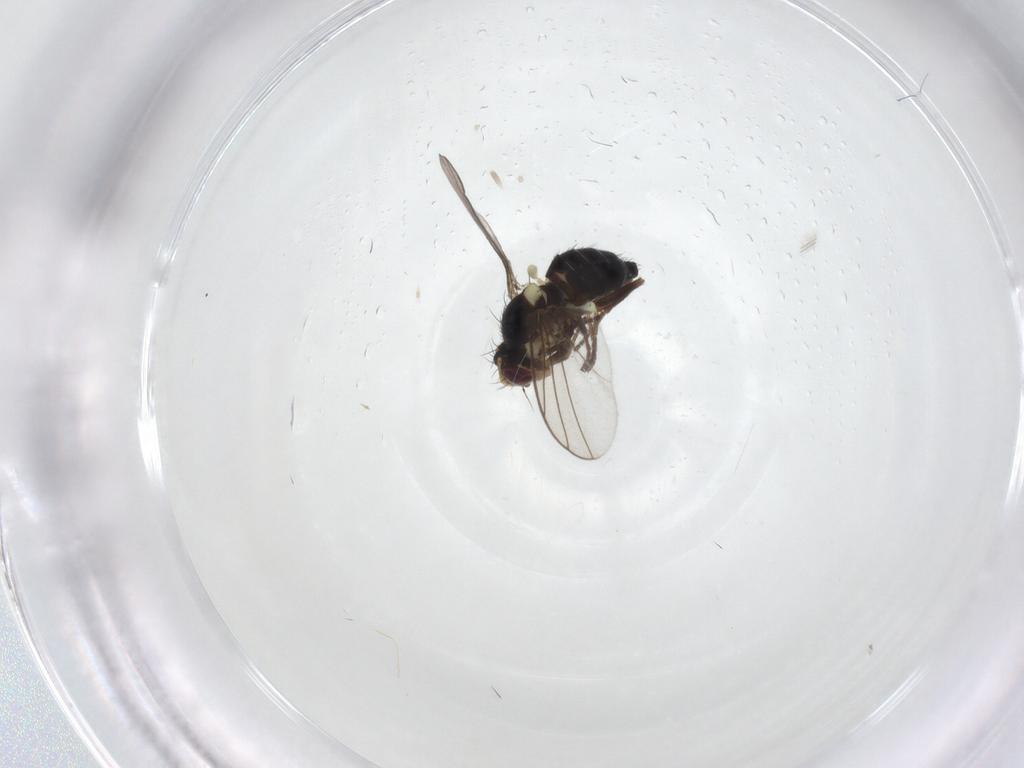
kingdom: Animalia
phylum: Arthropoda
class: Insecta
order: Diptera
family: Agromyzidae
